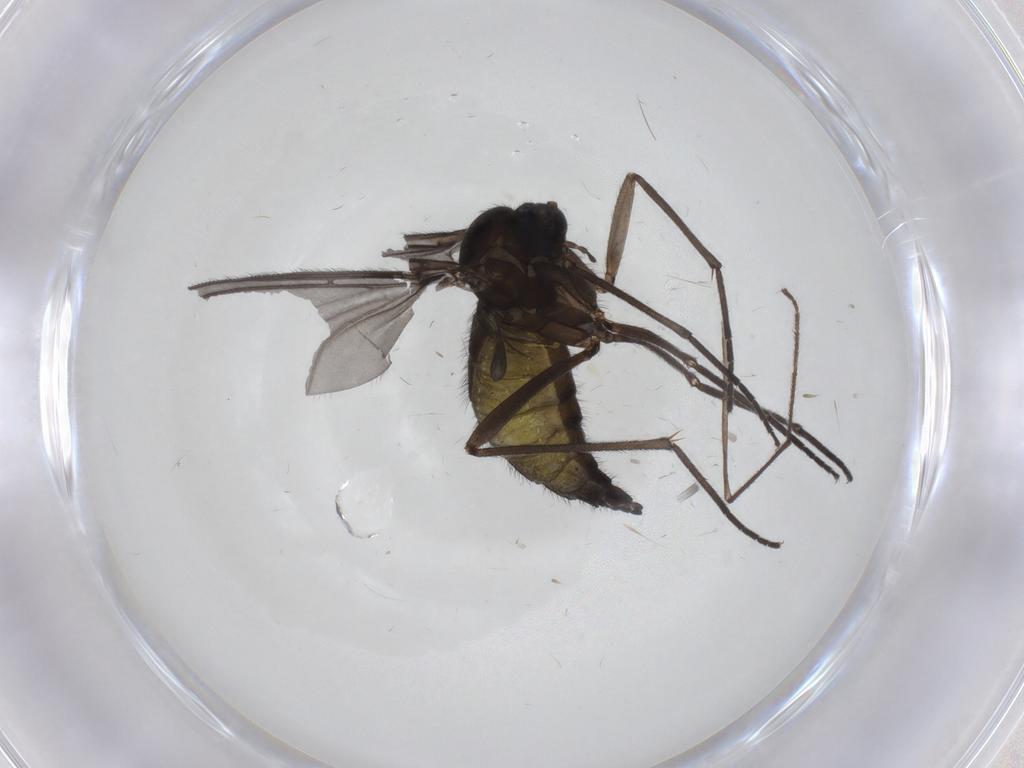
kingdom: Animalia
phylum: Arthropoda
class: Insecta
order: Diptera
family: Sciaridae
